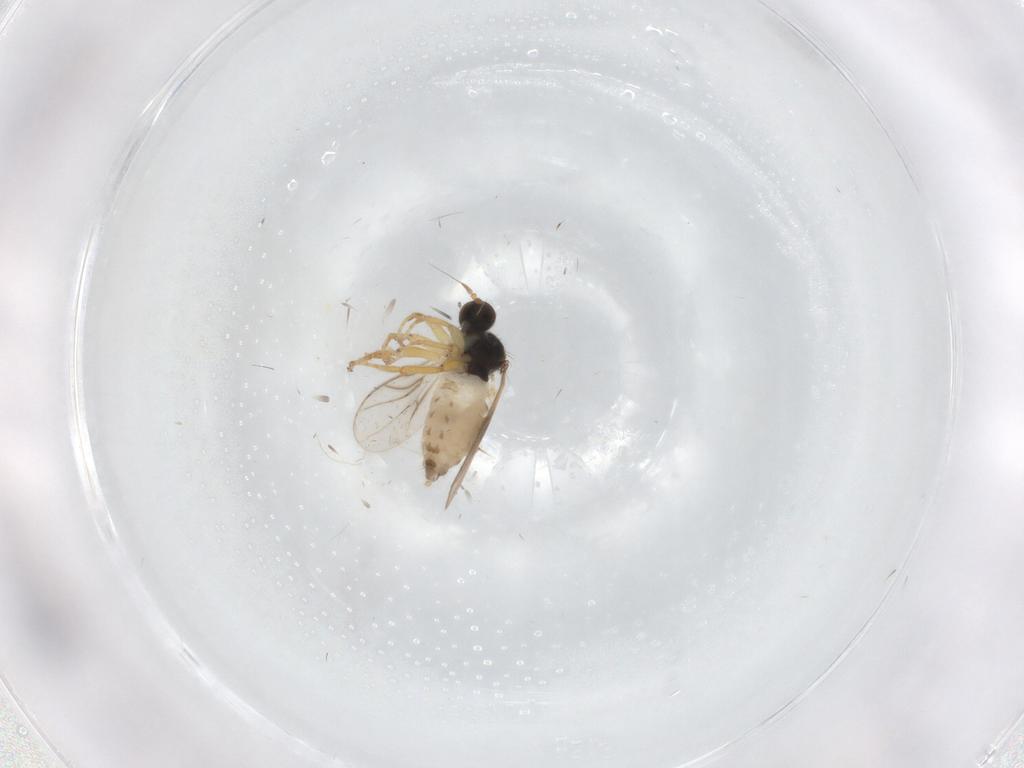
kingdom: Animalia
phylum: Arthropoda
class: Insecta
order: Diptera
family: Hybotidae
